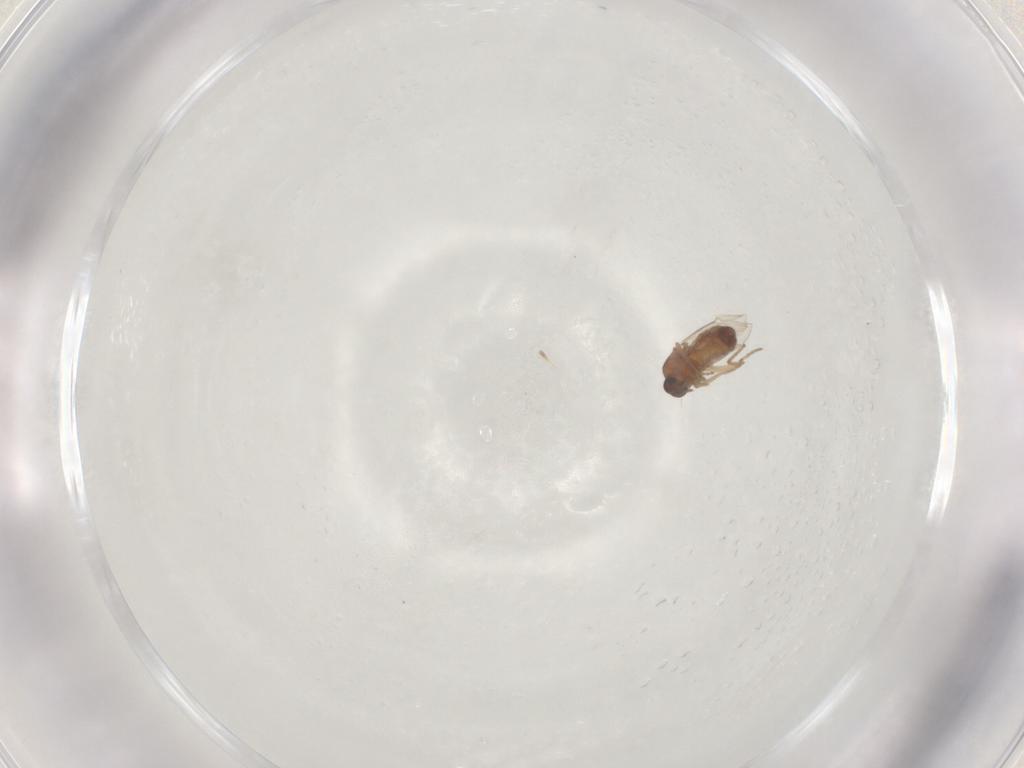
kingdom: Animalia
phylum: Arthropoda
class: Insecta
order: Diptera
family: Ceratopogonidae
